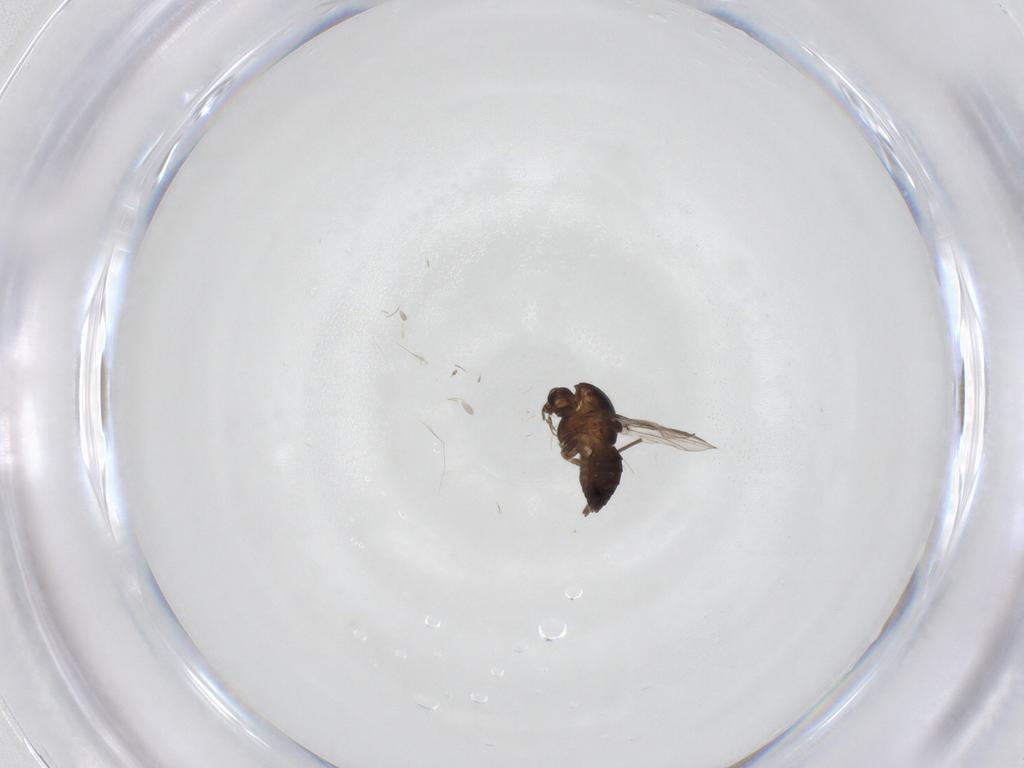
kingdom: Animalia
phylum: Arthropoda
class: Insecta
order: Diptera
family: Cecidomyiidae
